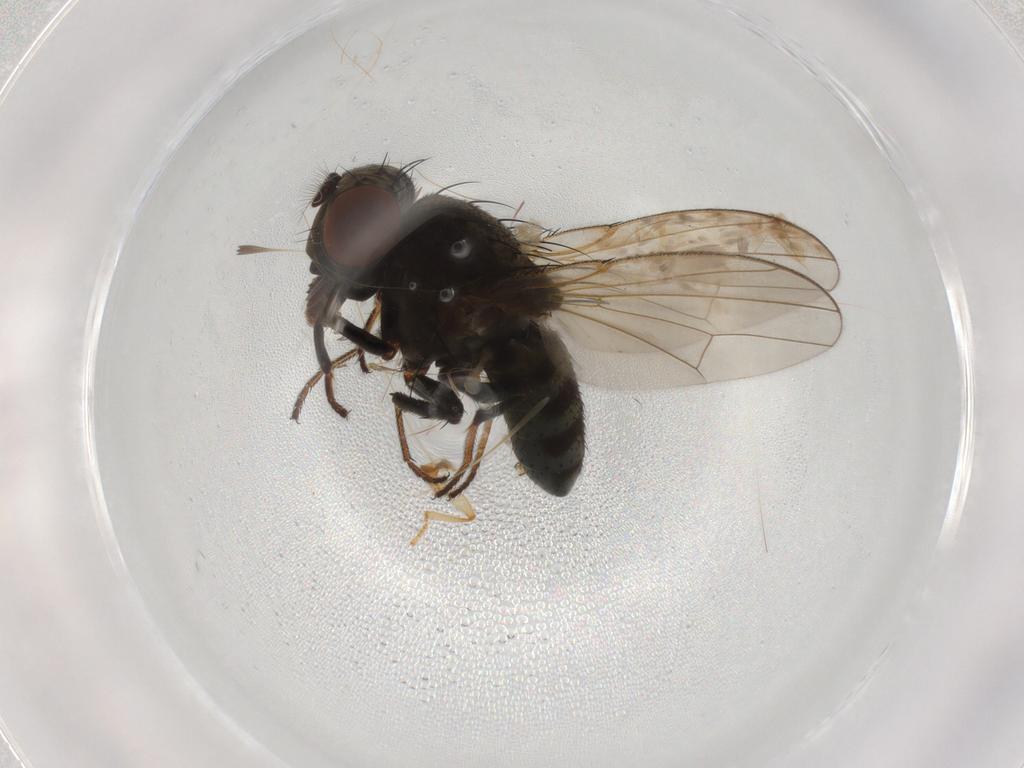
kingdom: Animalia
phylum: Arthropoda
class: Insecta
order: Diptera
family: Ephydridae
